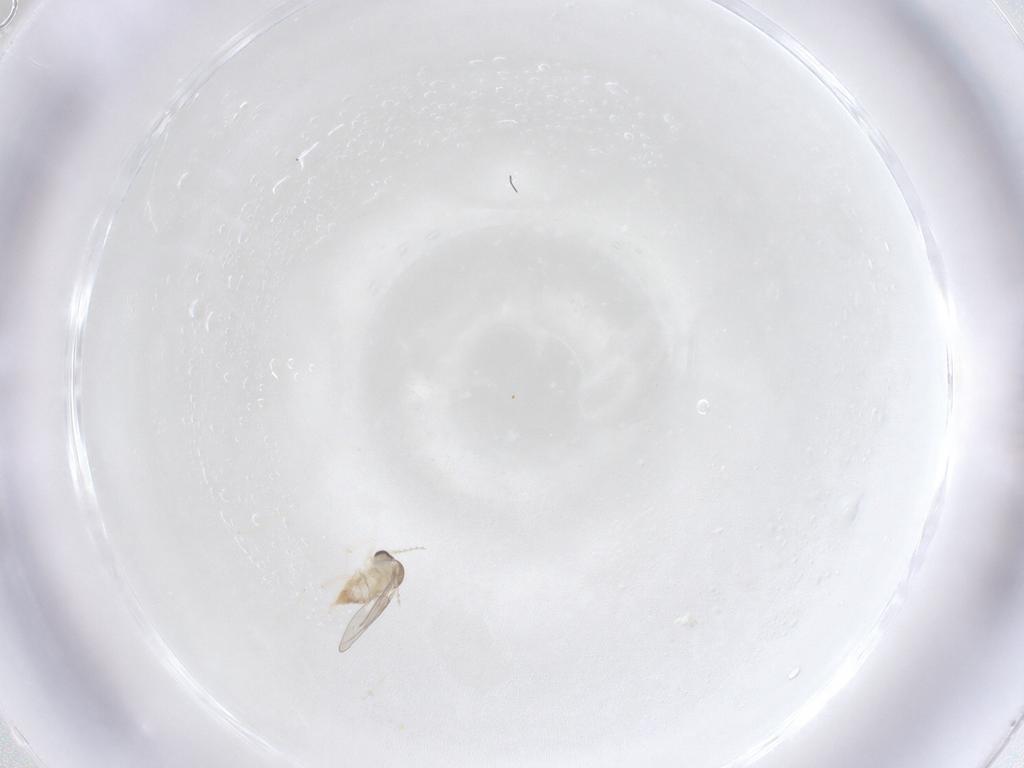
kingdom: Animalia
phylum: Arthropoda
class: Insecta
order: Diptera
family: Cecidomyiidae
